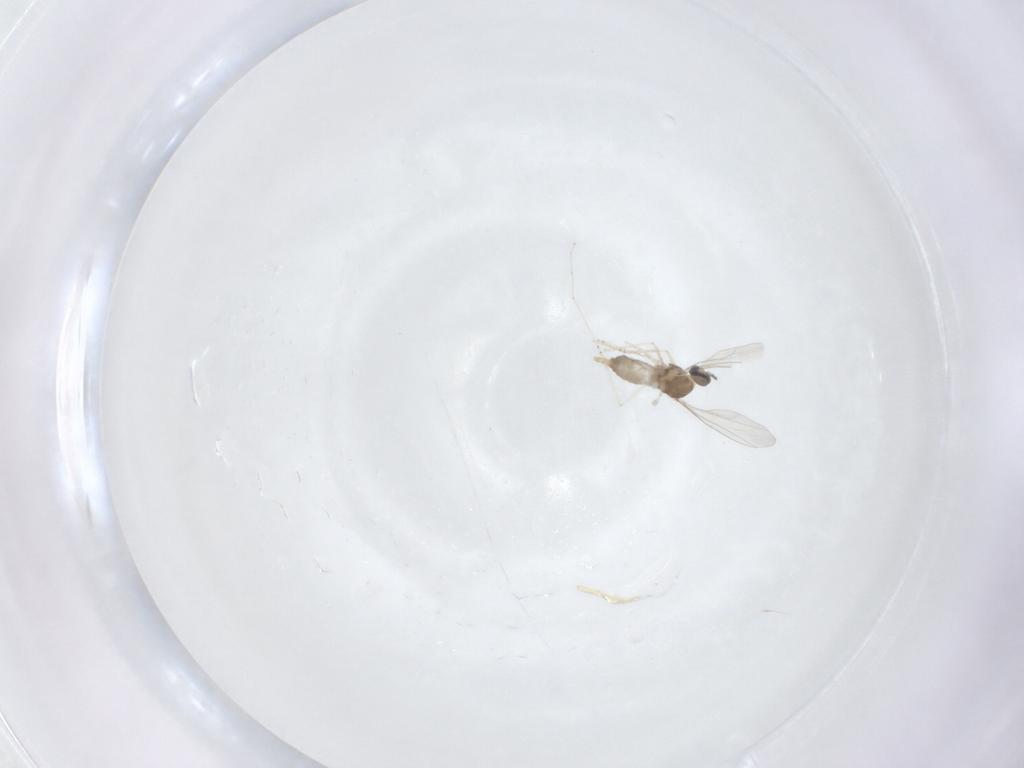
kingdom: Animalia
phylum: Arthropoda
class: Insecta
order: Diptera
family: Cecidomyiidae
